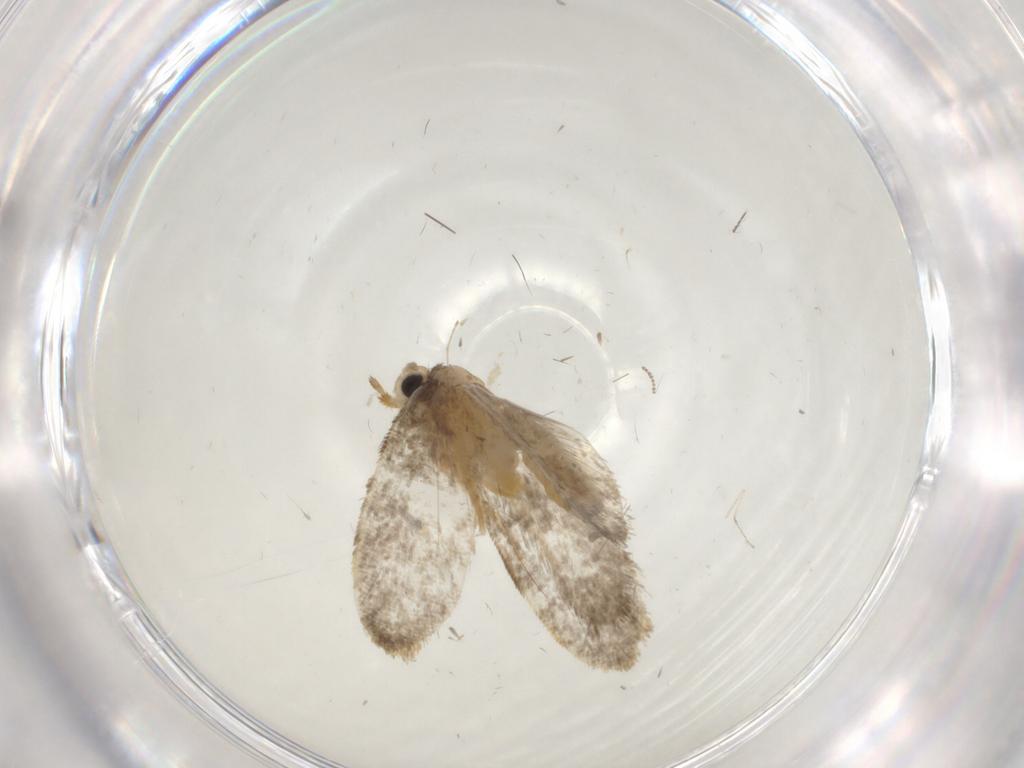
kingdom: Animalia
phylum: Arthropoda
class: Insecta
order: Lepidoptera
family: Psychidae
